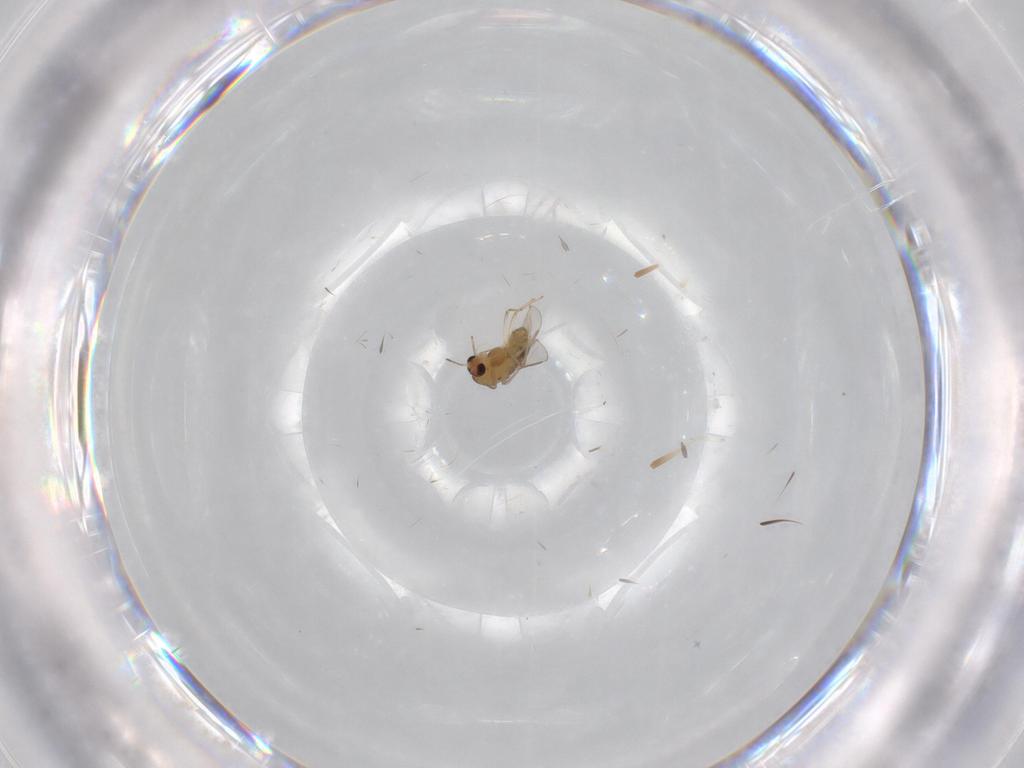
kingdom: Animalia
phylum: Arthropoda
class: Insecta
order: Diptera
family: Chironomidae
